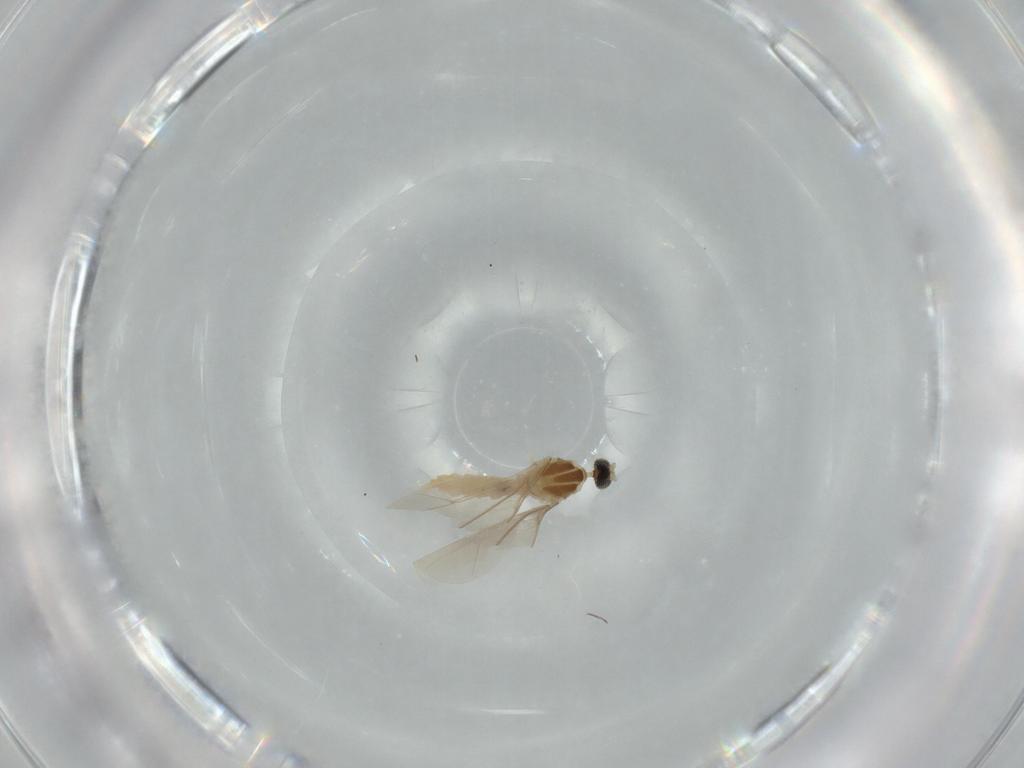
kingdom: Animalia
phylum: Arthropoda
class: Insecta
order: Diptera
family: Cecidomyiidae
